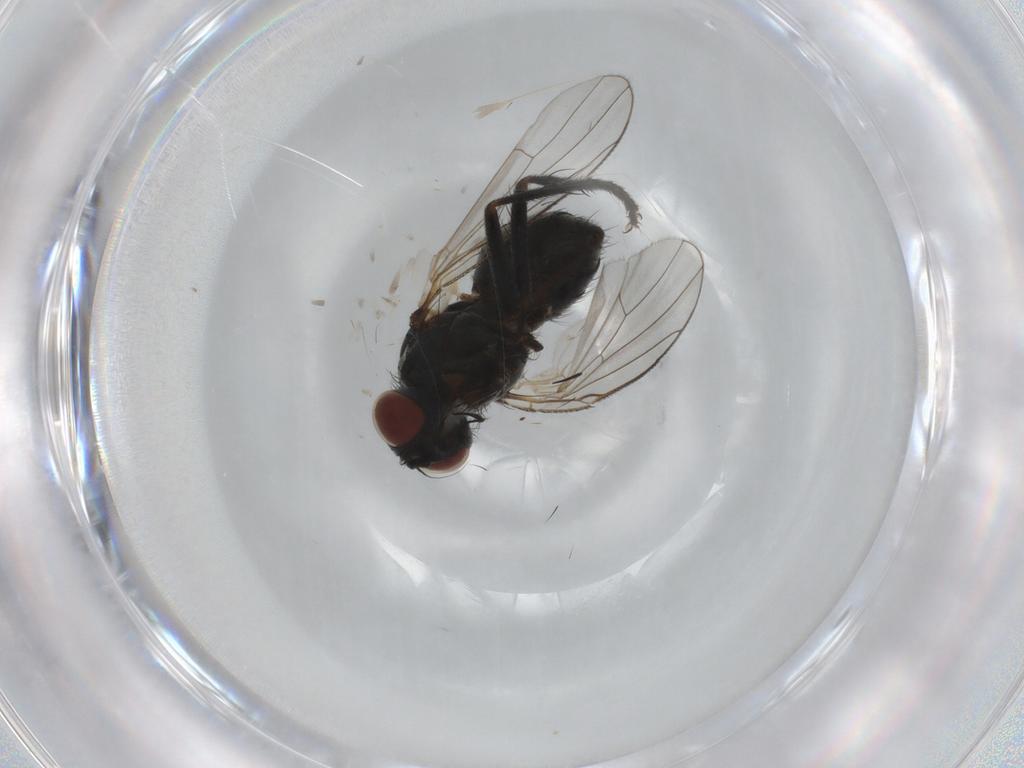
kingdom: Animalia
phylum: Arthropoda
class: Insecta
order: Diptera
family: Muscidae
